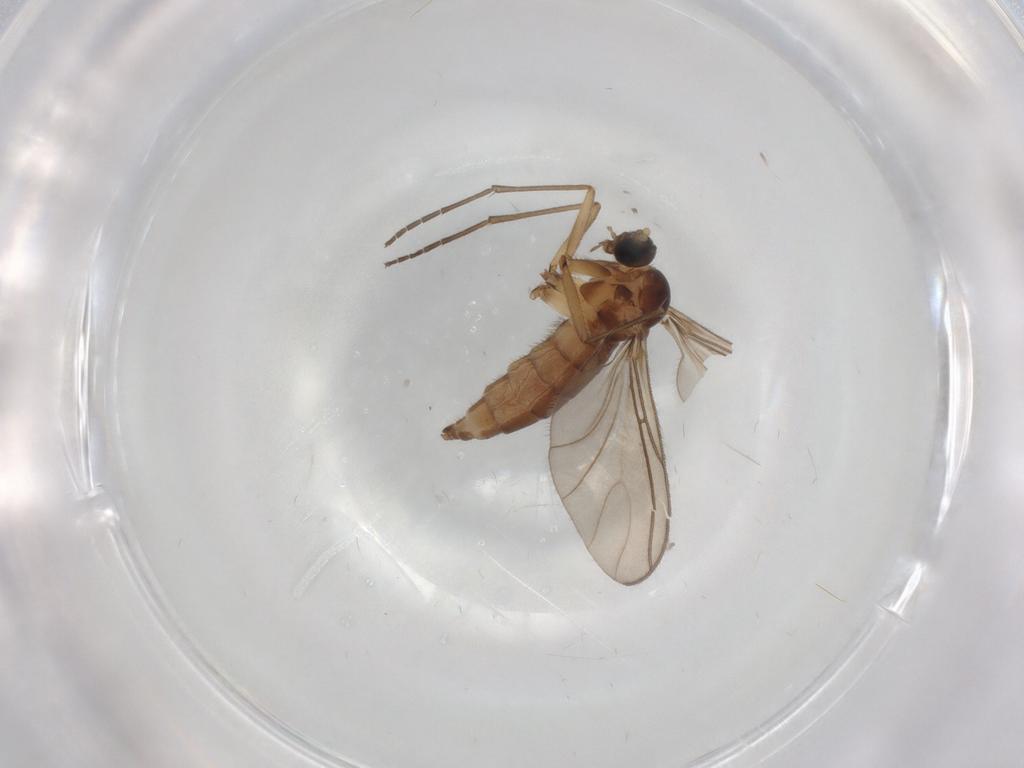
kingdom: Animalia
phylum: Arthropoda
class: Insecta
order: Diptera
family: Sciaridae
